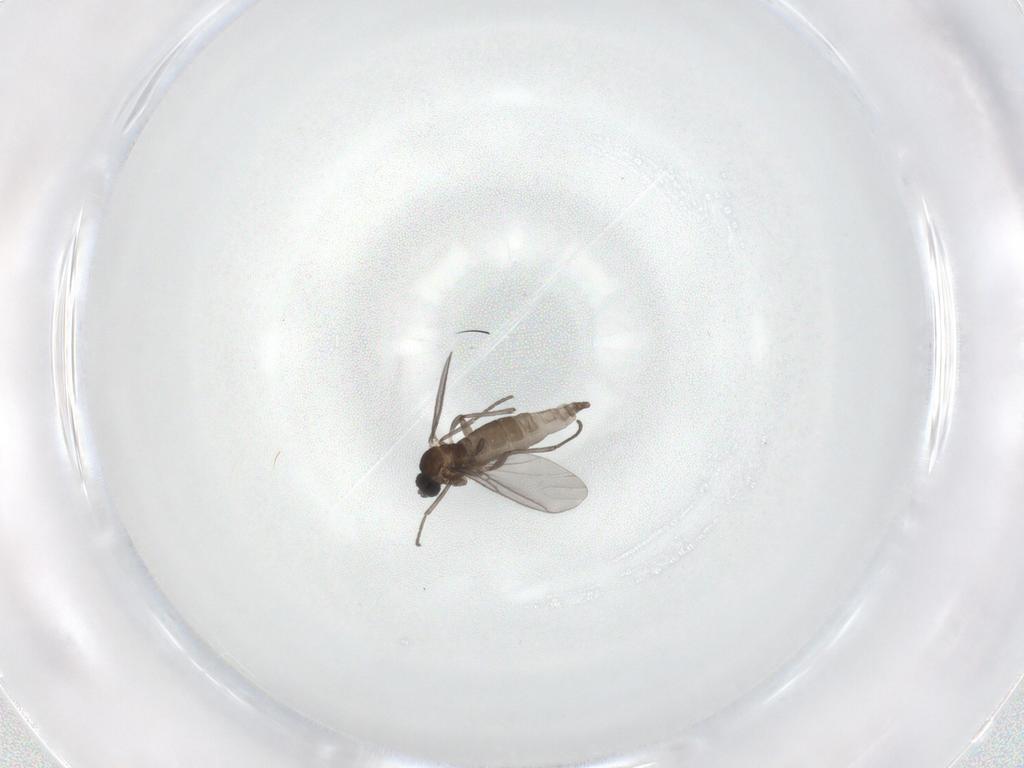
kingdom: Animalia
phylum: Arthropoda
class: Insecta
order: Diptera
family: Sciaridae
